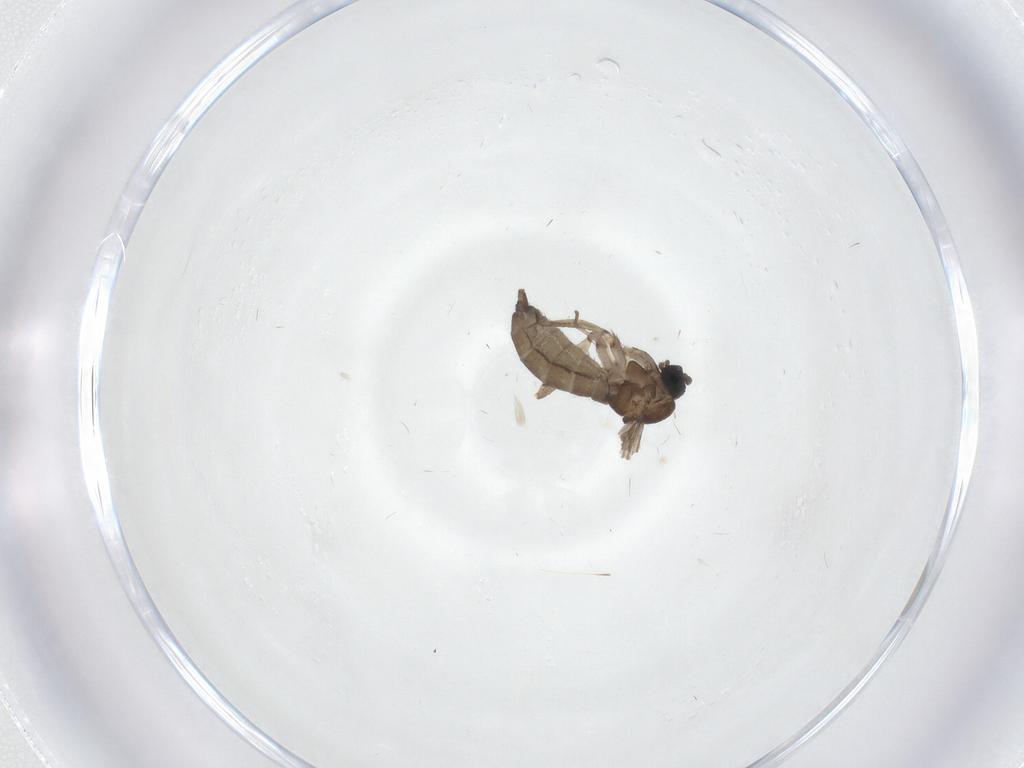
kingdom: Animalia
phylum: Arthropoda
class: Insecta
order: Diptera
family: Sciaridae
